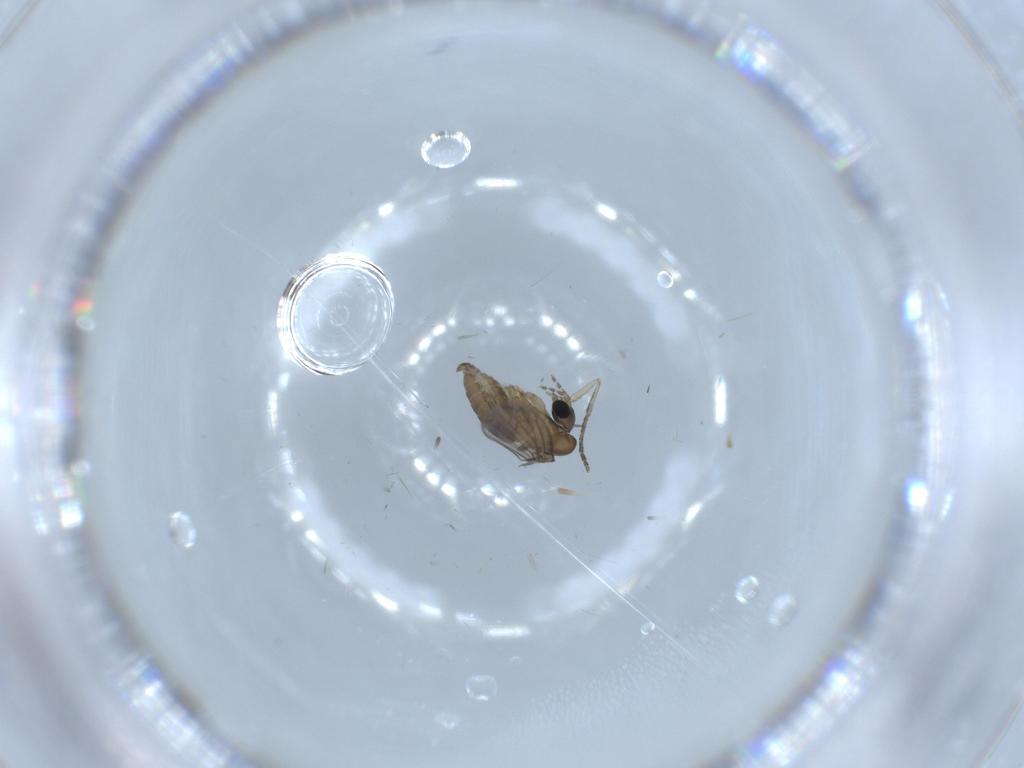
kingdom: Animalia
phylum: Arthropoda
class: Insecta
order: Diptera
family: Psychodidae
